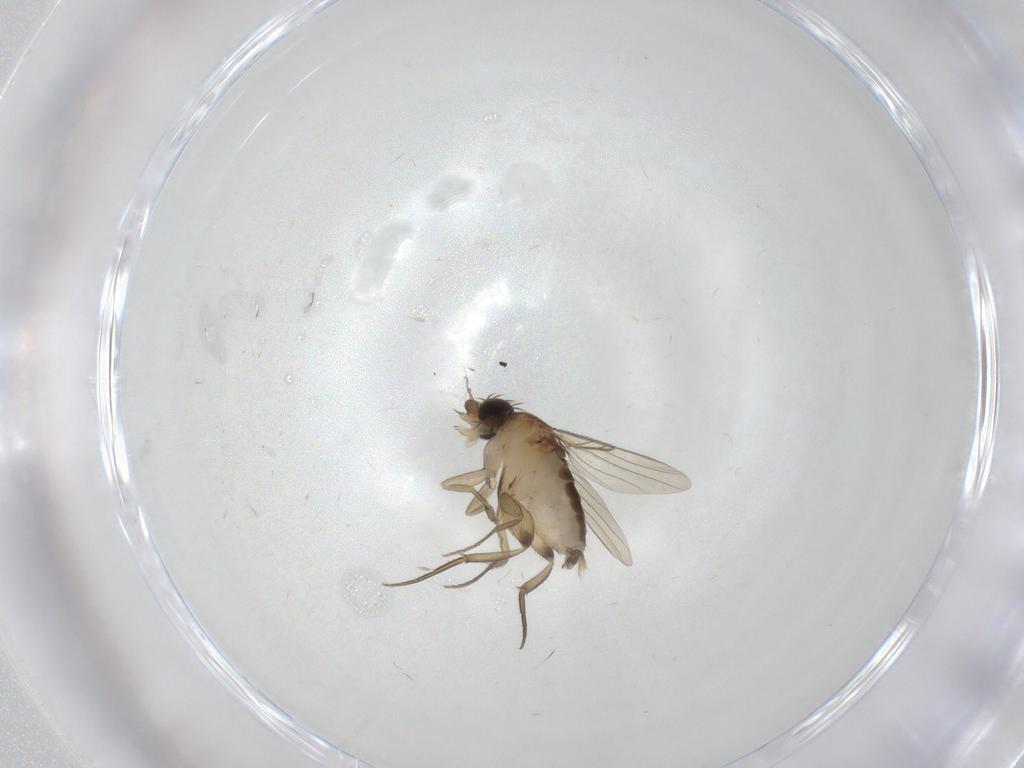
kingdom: Animalia
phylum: Arthropoda
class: Insecta
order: Diptera
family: Phoridae
